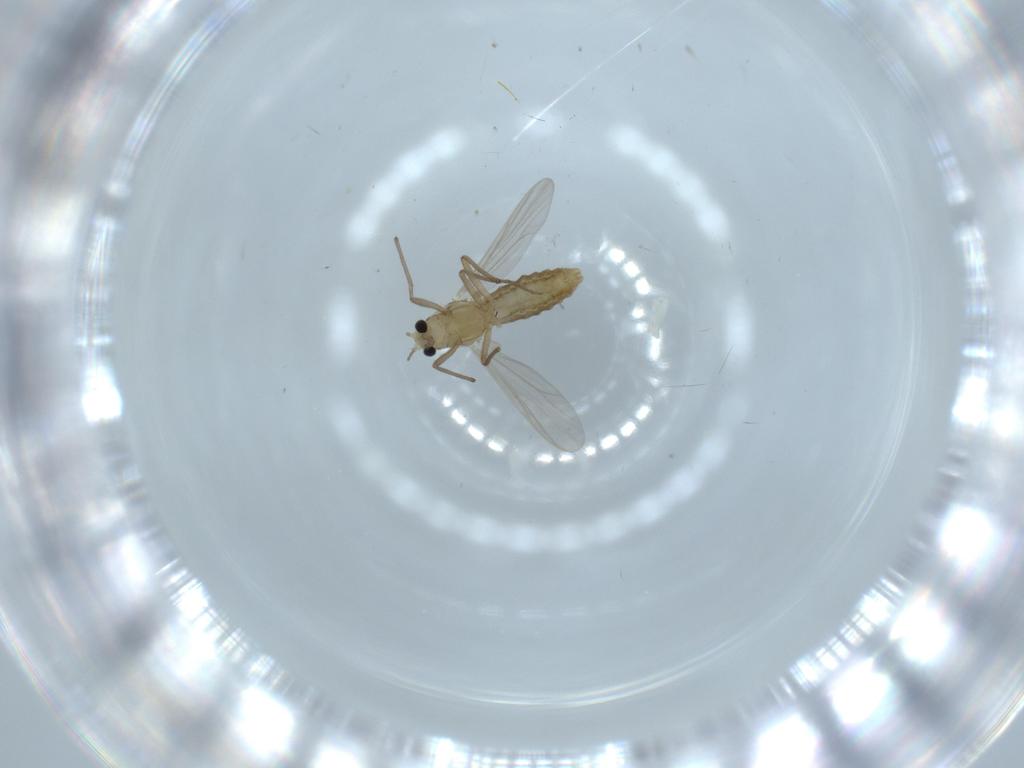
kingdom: Animalia
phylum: Arthropoda
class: Insecta
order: Diptera
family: Chironomidae
